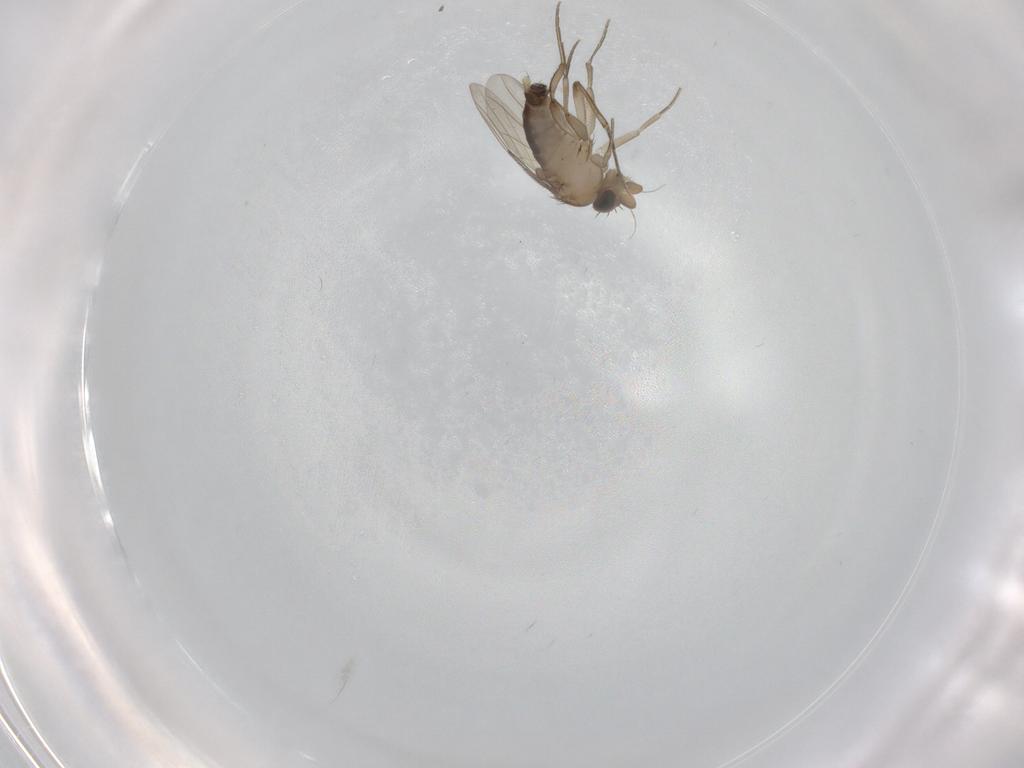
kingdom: Animalia
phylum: Arthropoda
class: Insecta
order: Diptera
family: Phoridae
